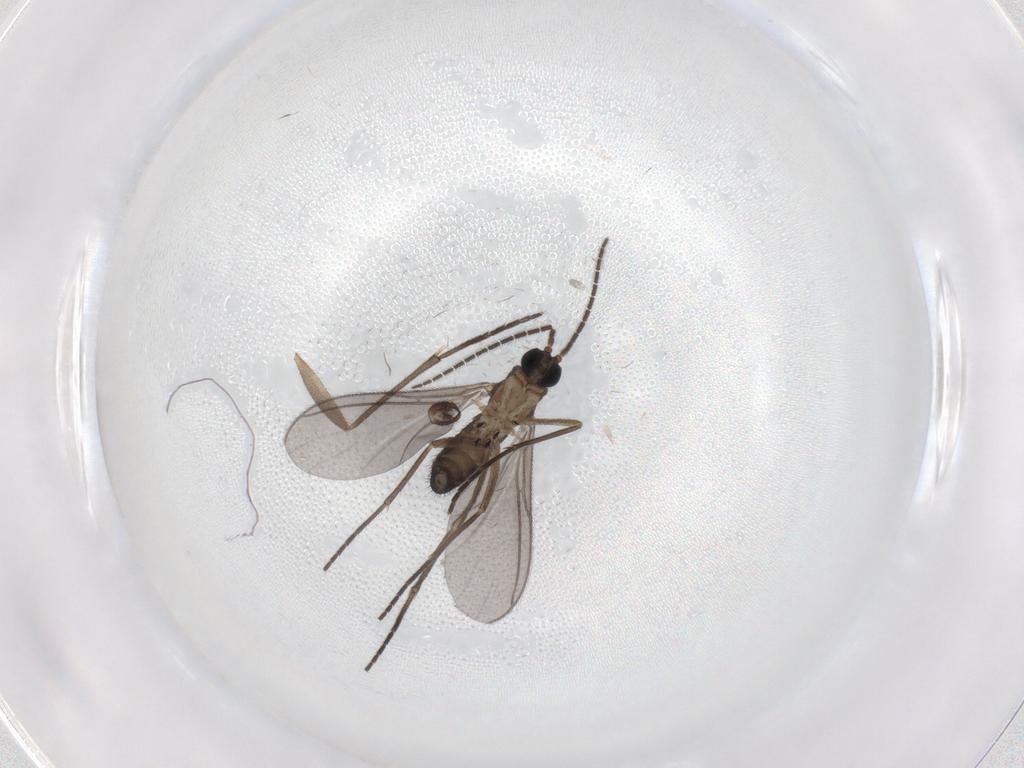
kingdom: Animalia
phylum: Arthropoda
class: Insecta
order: Diptera
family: Sciaridae
